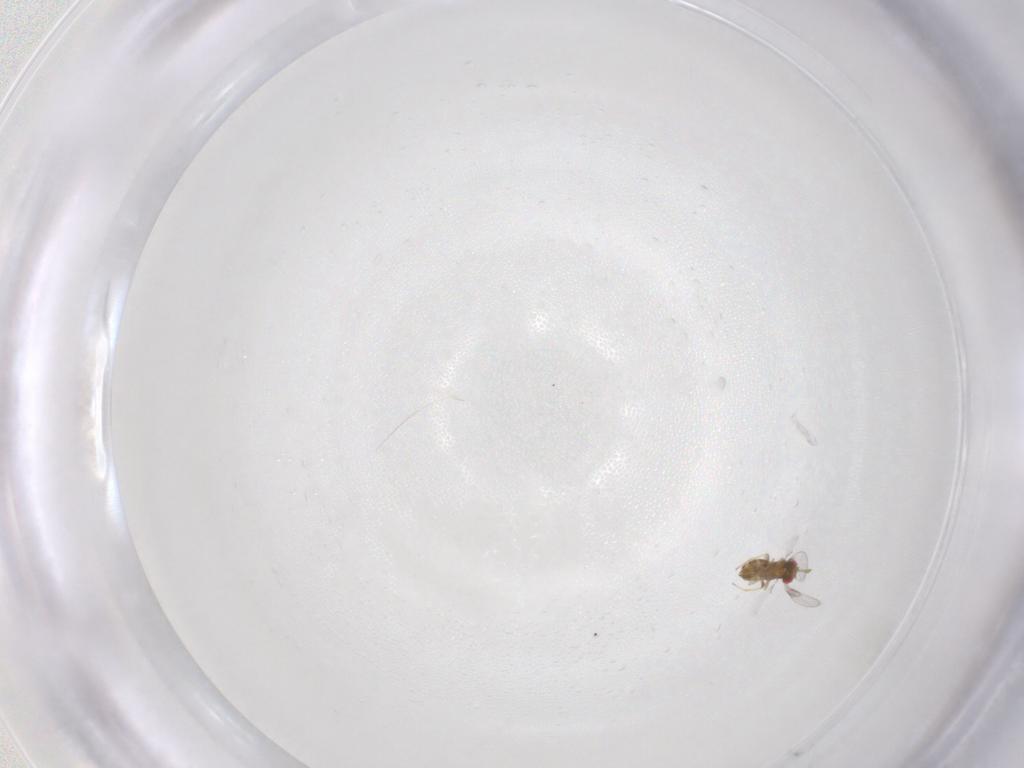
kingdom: Animalia
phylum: Arthropoda
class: Insecta
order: Hymenoptera
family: Trichogrammatidae
